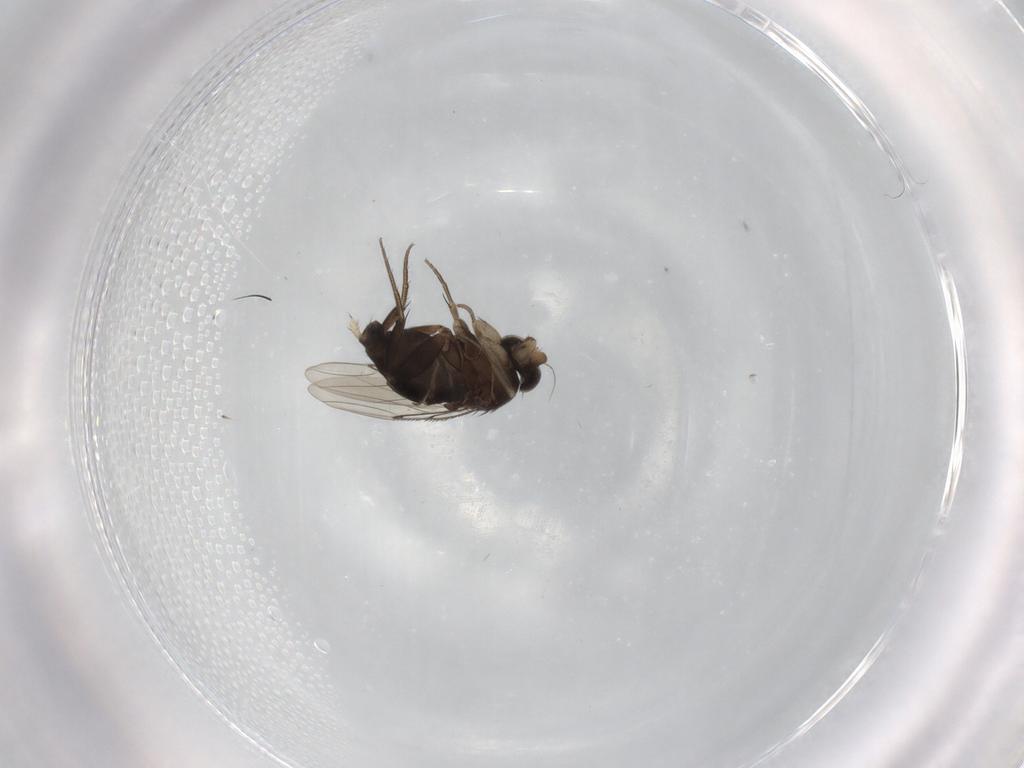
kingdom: Animalia
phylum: Arthropoda
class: Insecta
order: Diptera
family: Phoridae
